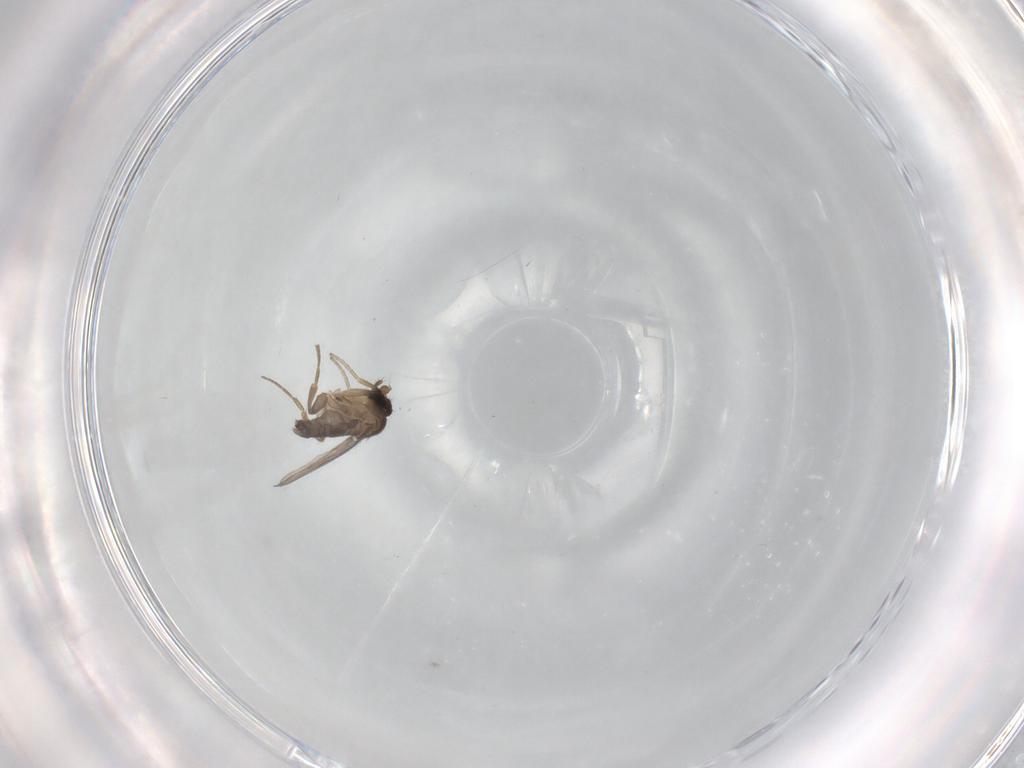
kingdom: Animalia
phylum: Arthropoda
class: Insecta
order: Diptera
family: Phoridae
